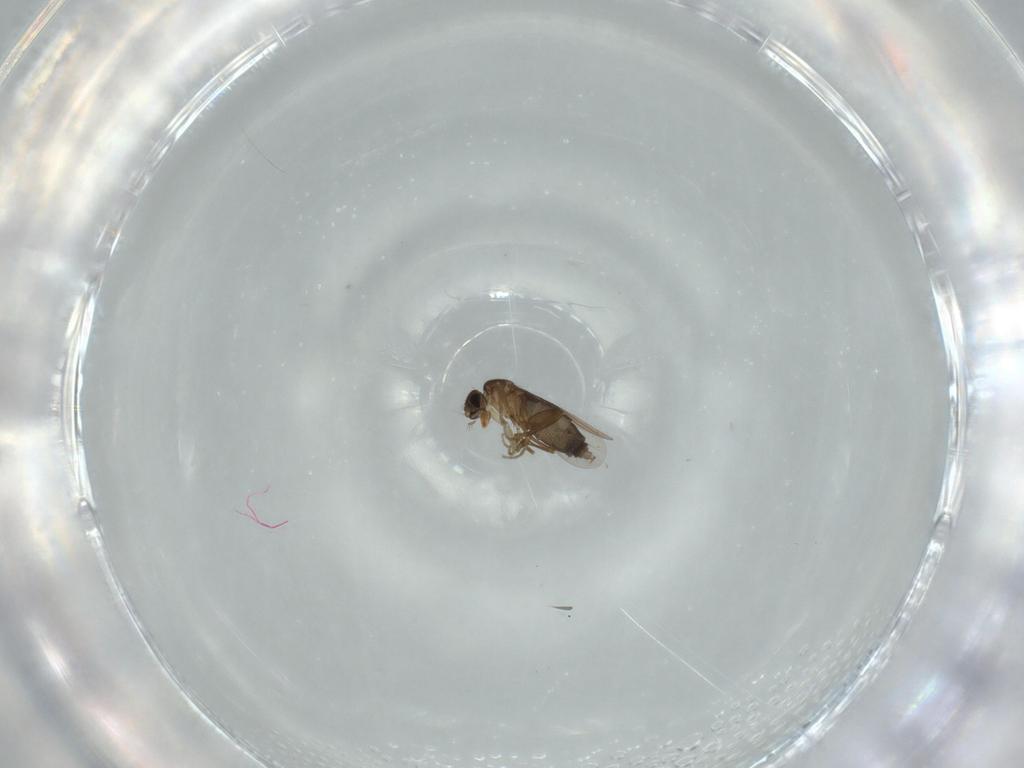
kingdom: Animalia
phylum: Arthropoda
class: Insecta
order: Diptera
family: Phoridae
